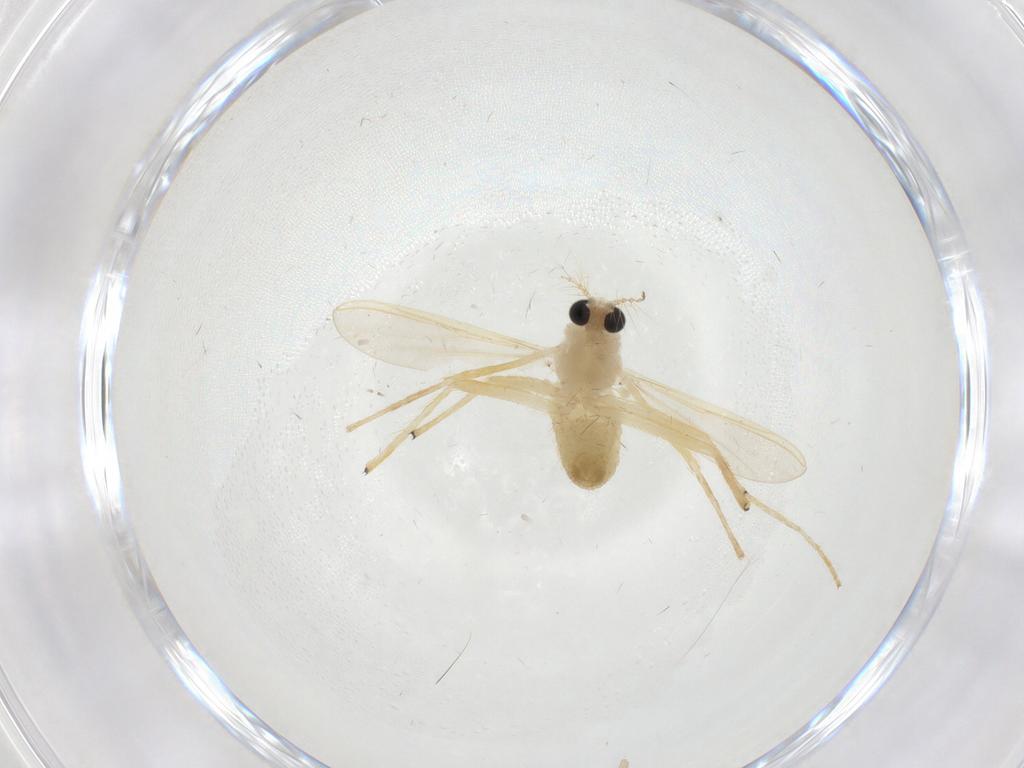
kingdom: Animalia
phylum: Arthropoda
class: Insecta
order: Diptera
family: Chironomidae
